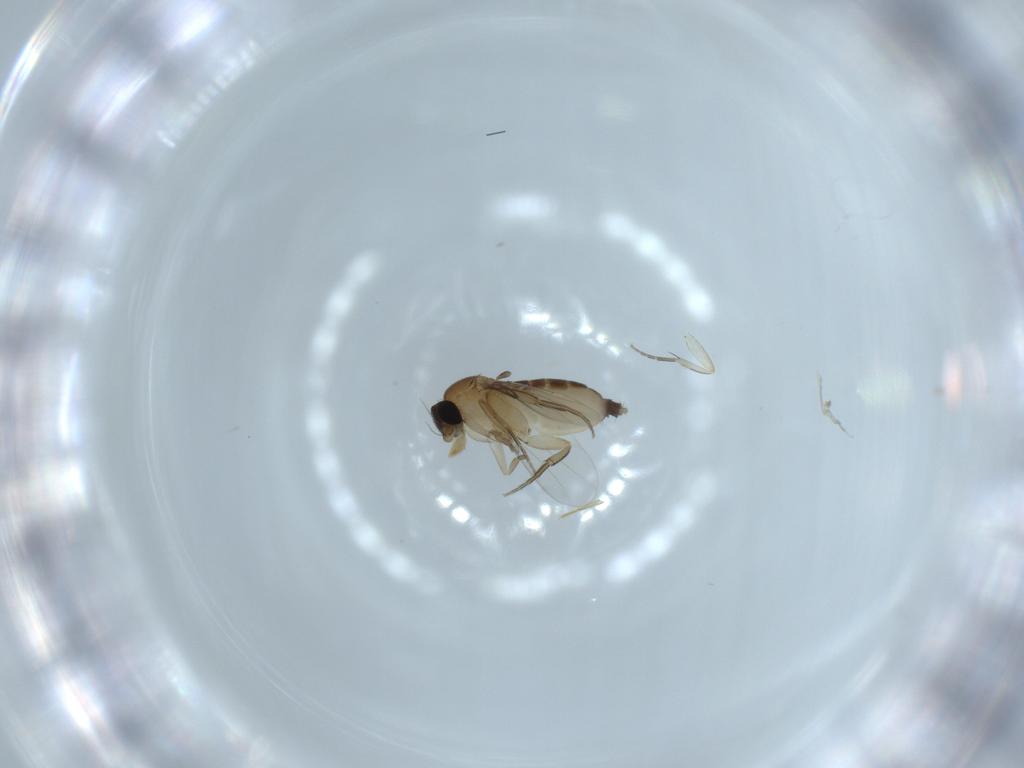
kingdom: Animalia
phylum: Arthropoda
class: Insecta
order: Diptera
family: Phoridae
